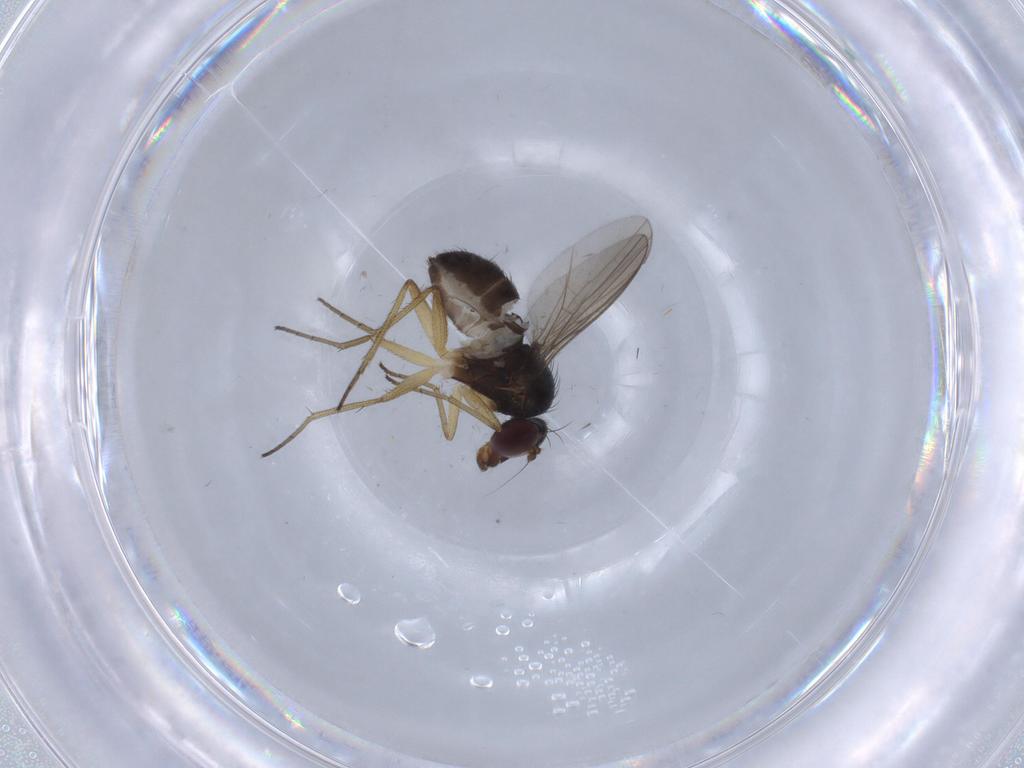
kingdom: Animalia
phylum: Arthropoda
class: Insecta
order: Diptera
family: Dolichopodidae
